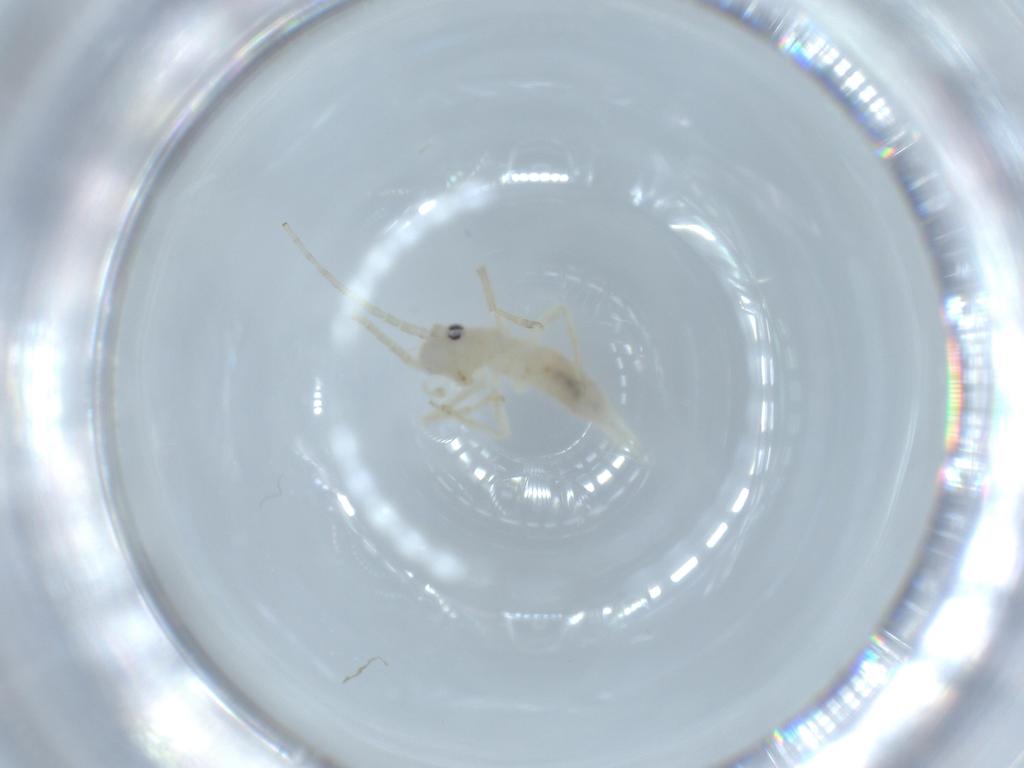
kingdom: Animalia
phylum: Arthropoda
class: Insecta
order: Orthoptera
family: Trigonidiidae
